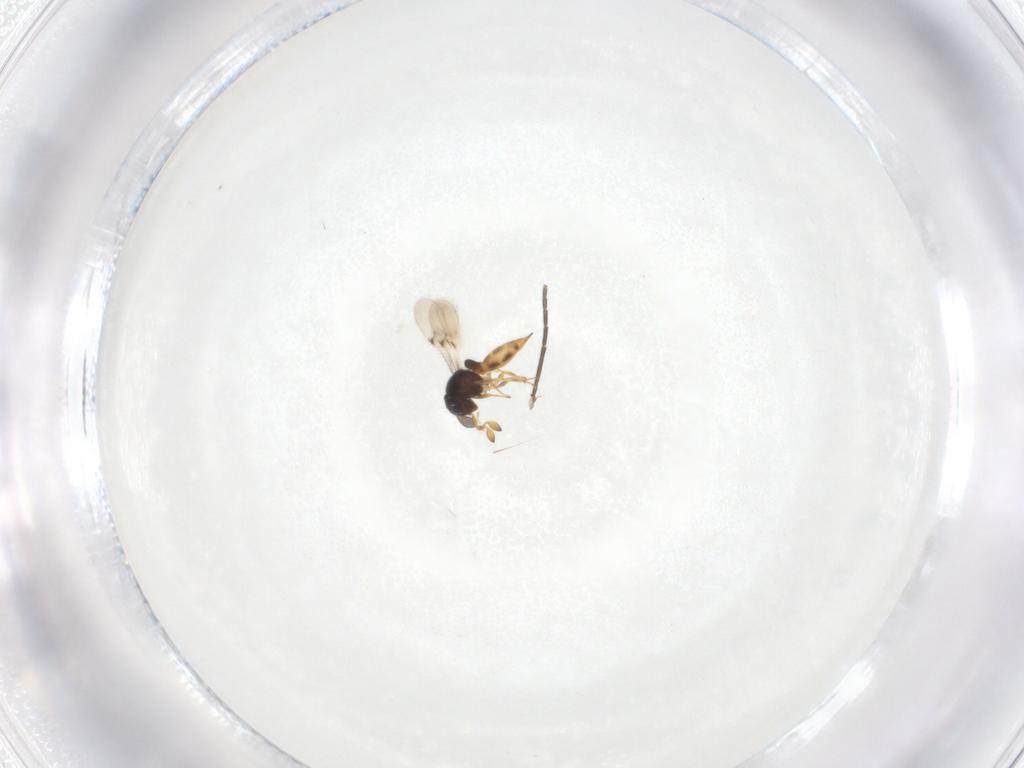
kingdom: Animalia
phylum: Arthropoda
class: Insecta
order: Hymenoptera
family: Scelionidae
